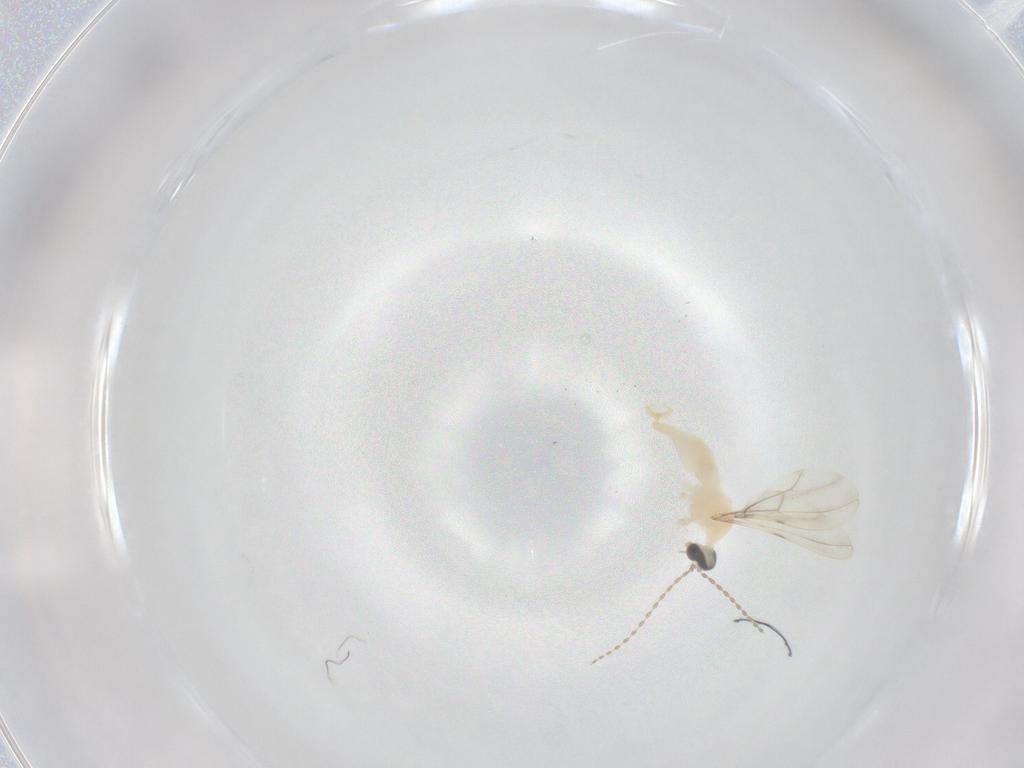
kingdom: Animalia
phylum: Arthropoda
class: Insecta
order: Diptera
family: Cecidomyiidae
